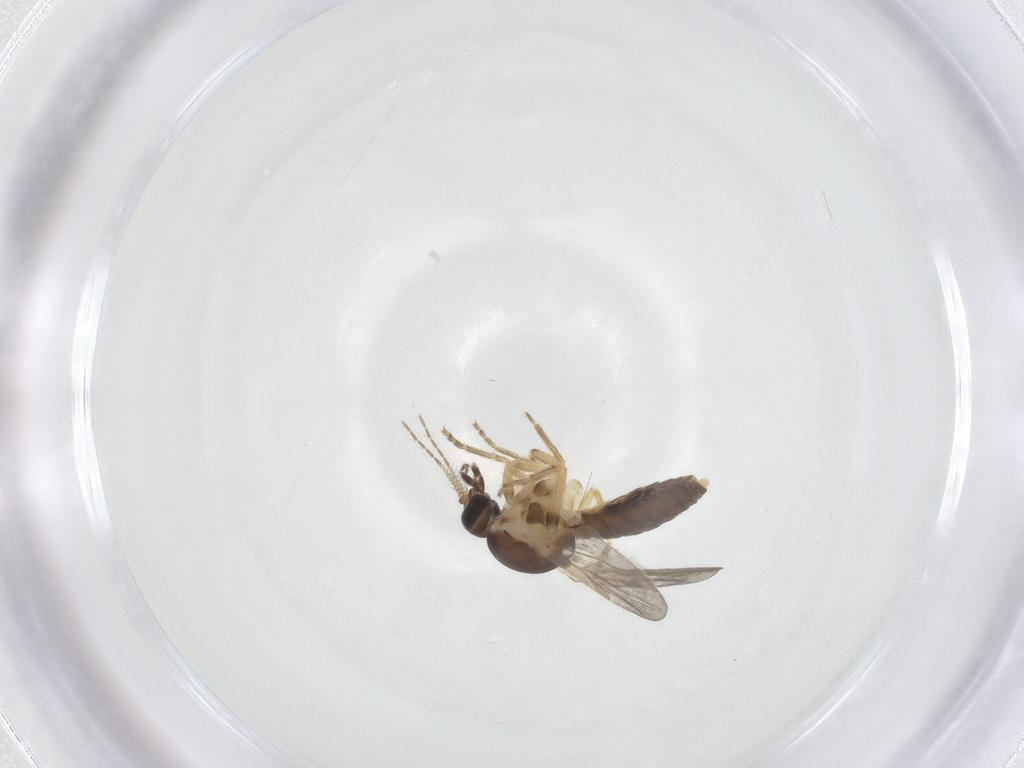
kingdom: Animalia
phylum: Arthropoda
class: Insecta
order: Diptera
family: Ceratopogonidae
